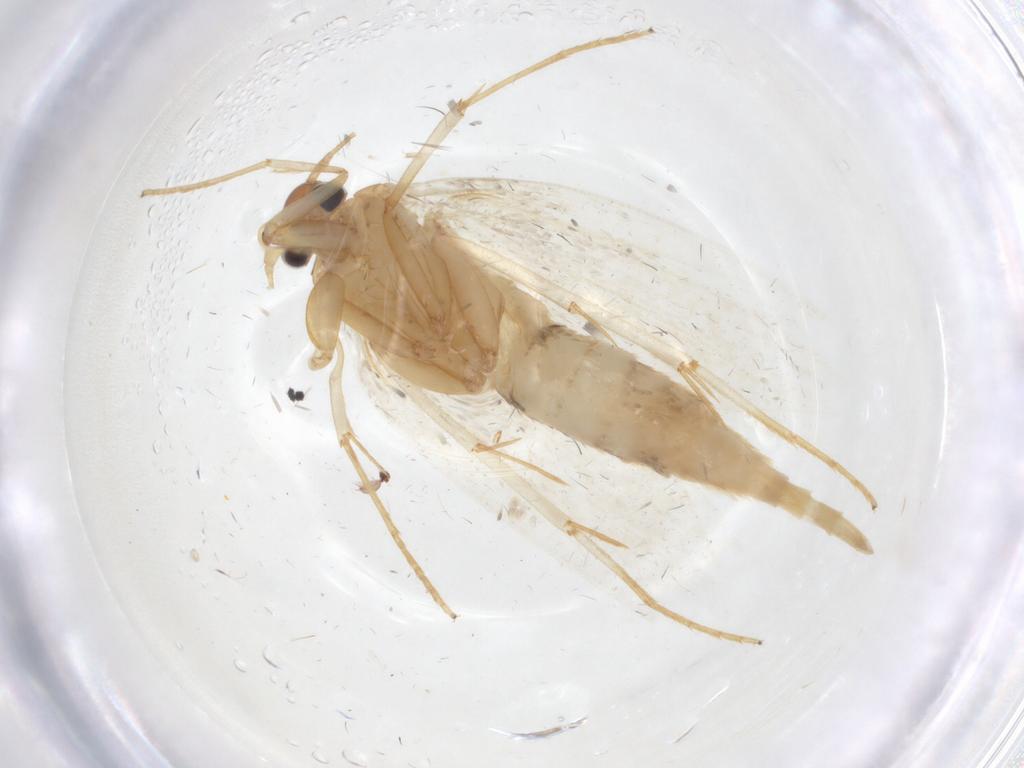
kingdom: Animalia
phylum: Arthropoda
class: Insecta
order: Lepidoptera
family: Oecophoridae
